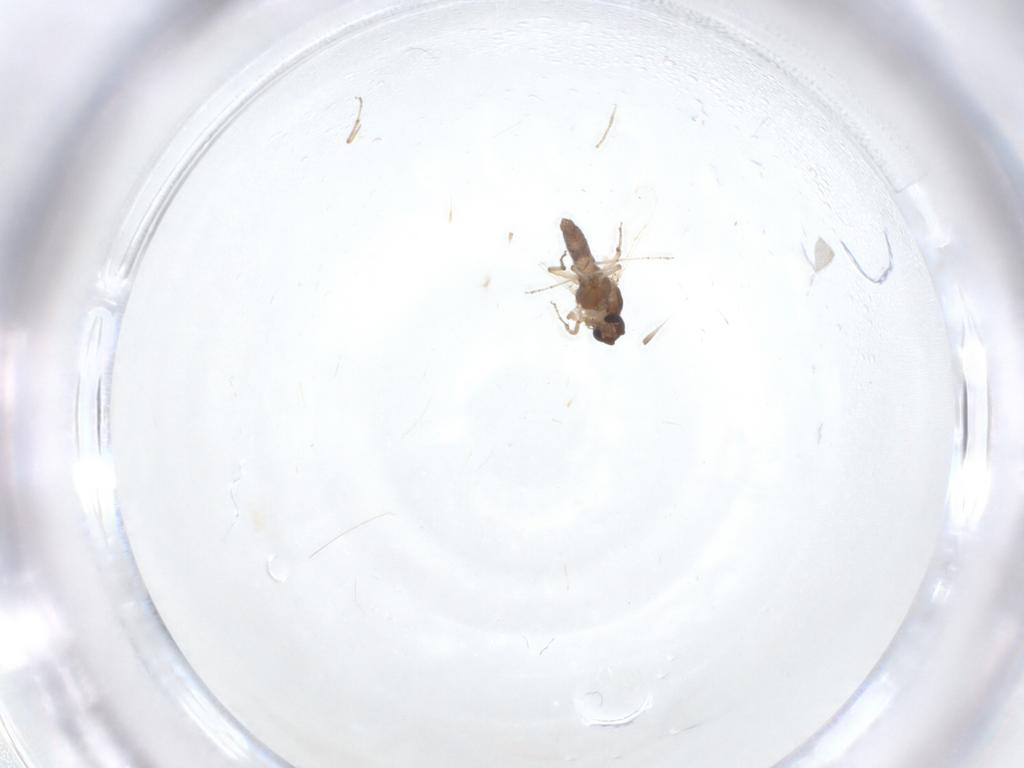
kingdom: Animalia
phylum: Arthropoda
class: Insecta
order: Diptera
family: Ceratopogonidae
